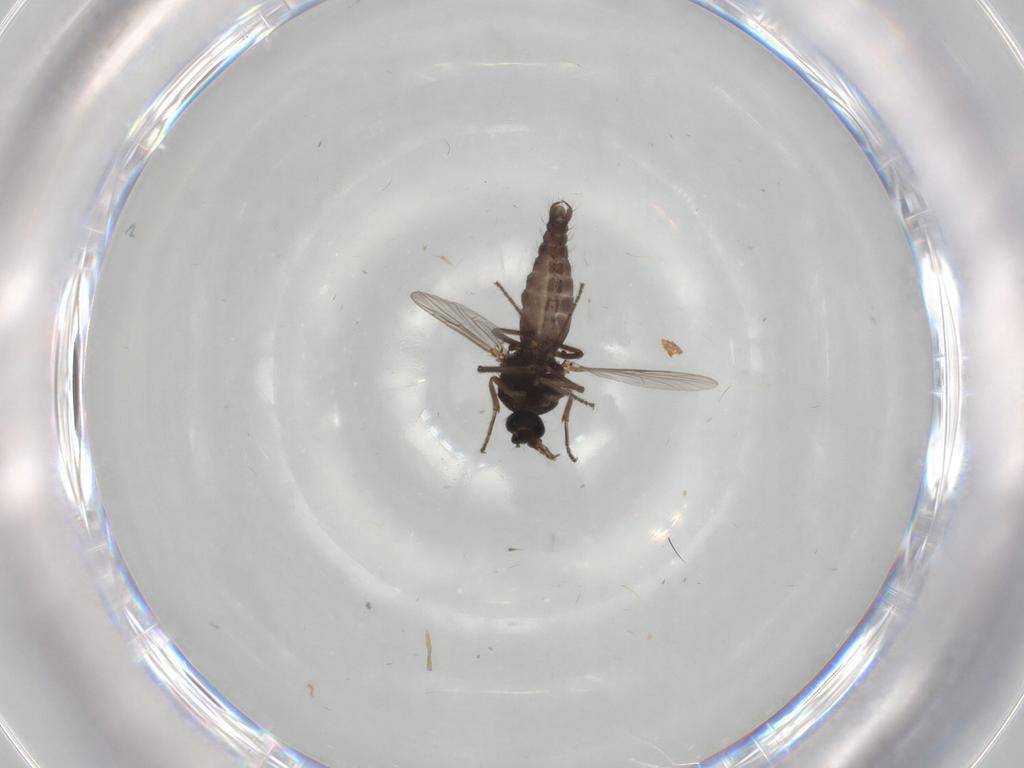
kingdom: Animalia
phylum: Arthropoda
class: Insecta
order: Diptera
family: Ceratopogonidae
